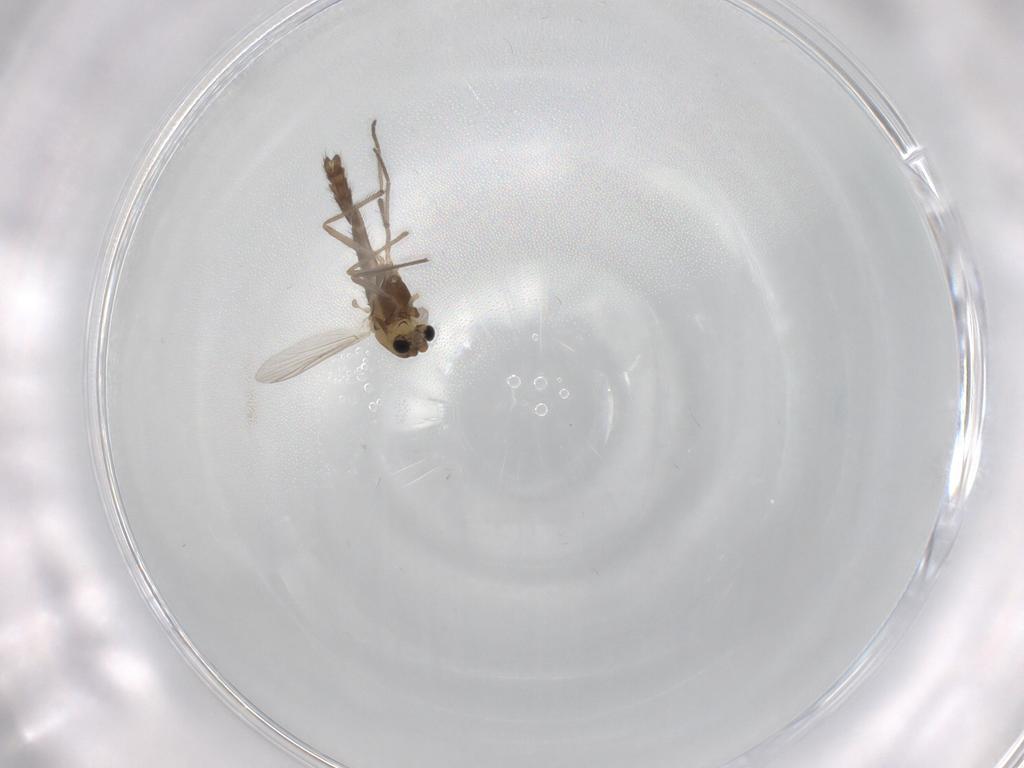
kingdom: Animalia
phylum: Arthropoda
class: Insecta
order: Diptera
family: Chironomidae
